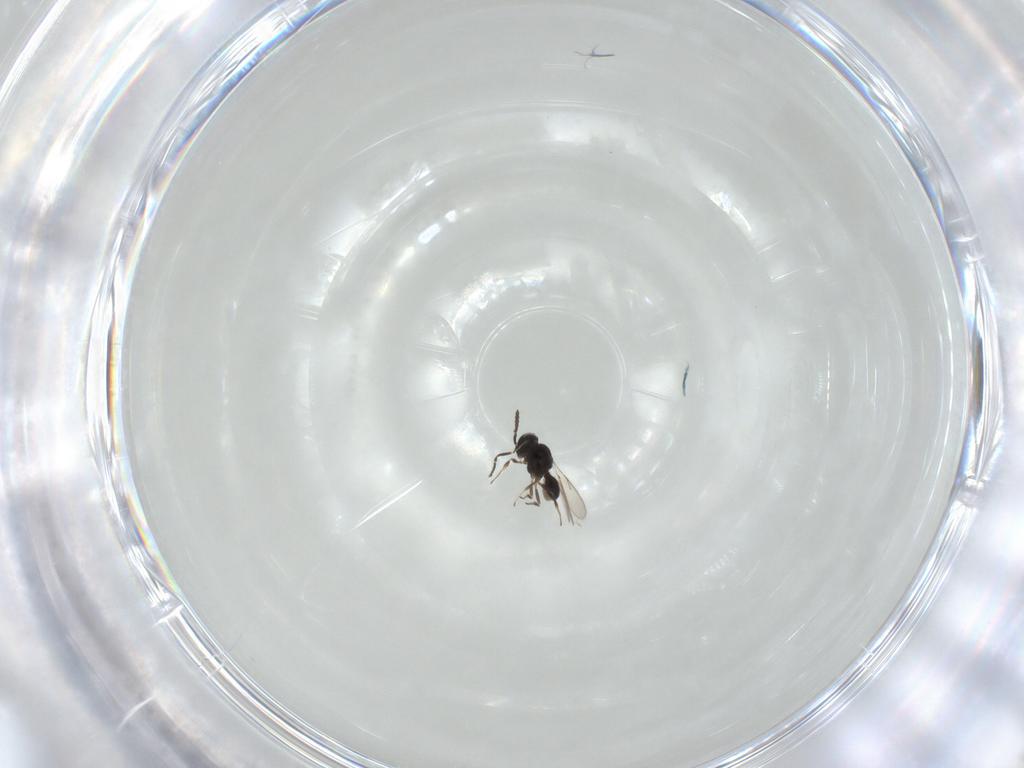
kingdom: Animalia
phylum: Arthropoda
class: Insecta
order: Hymenoptera
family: Scelionidae
